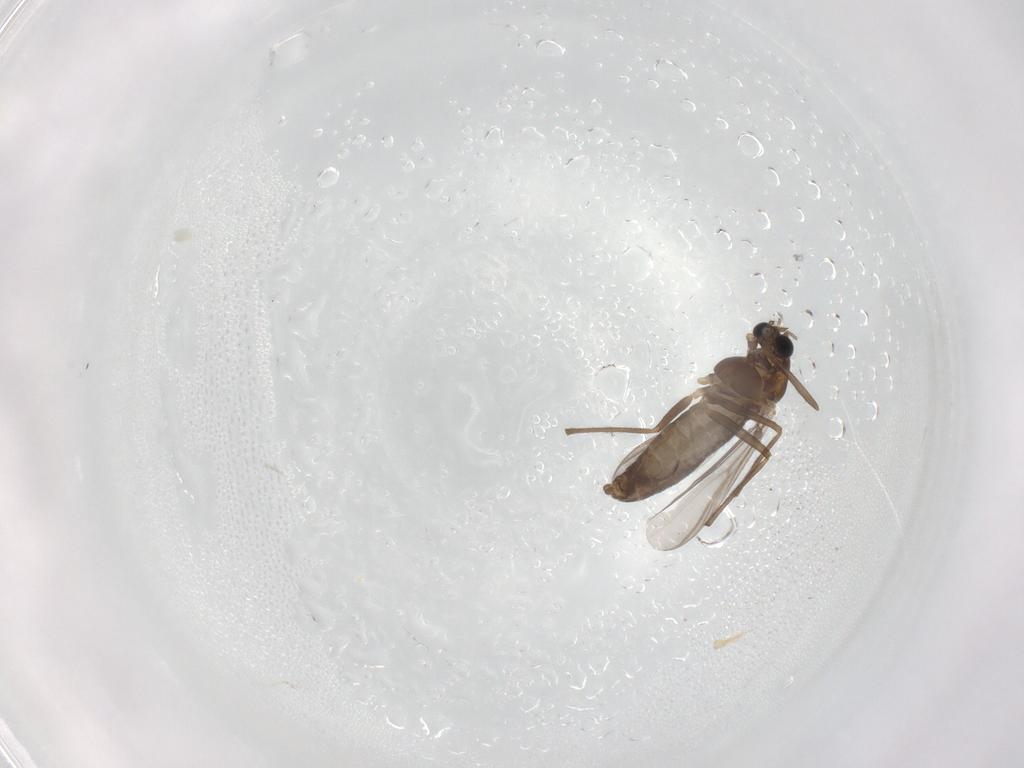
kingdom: Animalia
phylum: Arthropoda
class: Insecta
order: Diptera
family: Chironomidae
